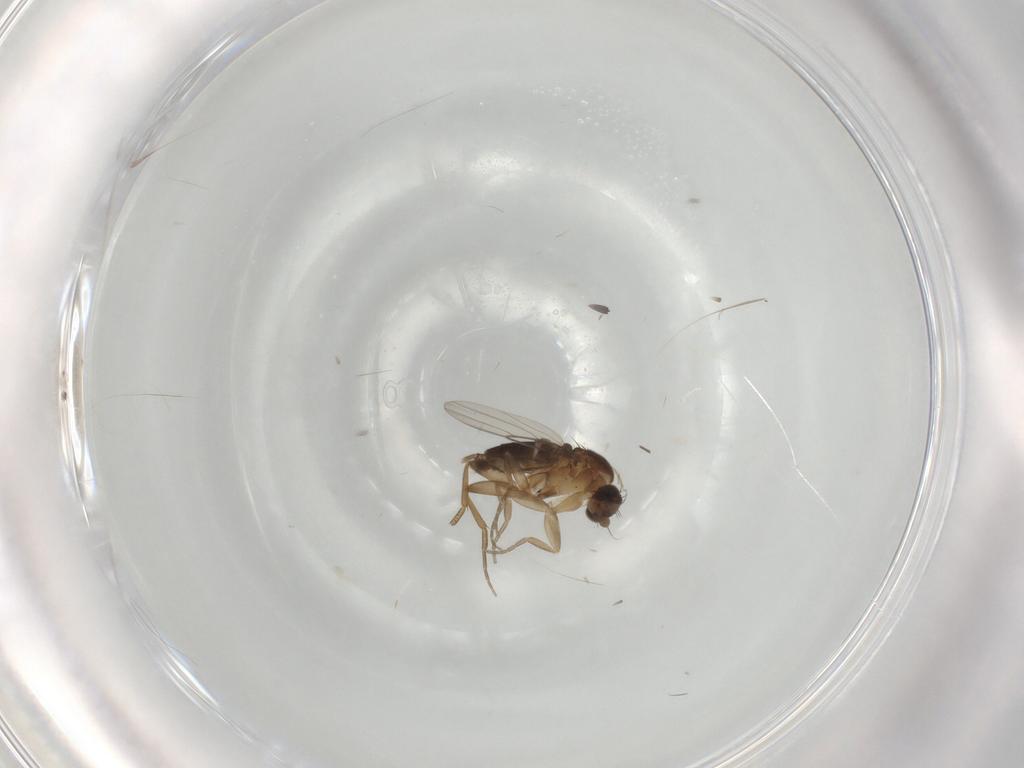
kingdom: Animalia
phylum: Arthropoda
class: Insecta
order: Diptera
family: Phoridae
